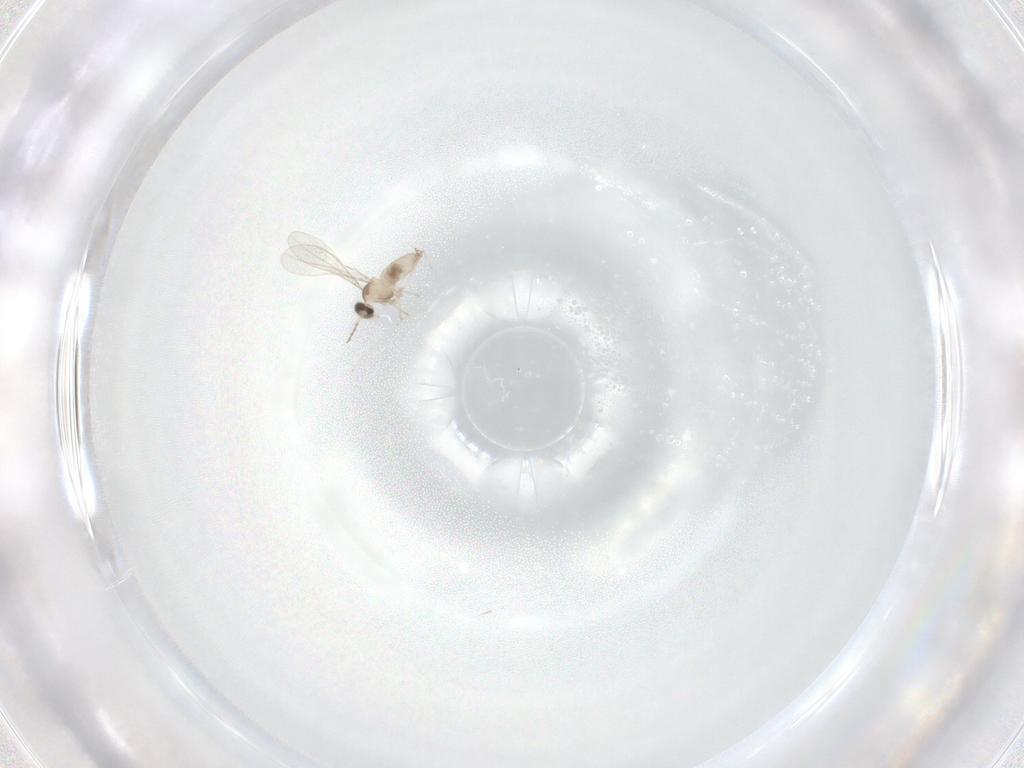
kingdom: Animalia
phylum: Arthropoda
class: Insecta
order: Diptera
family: Cecidomyiidae
